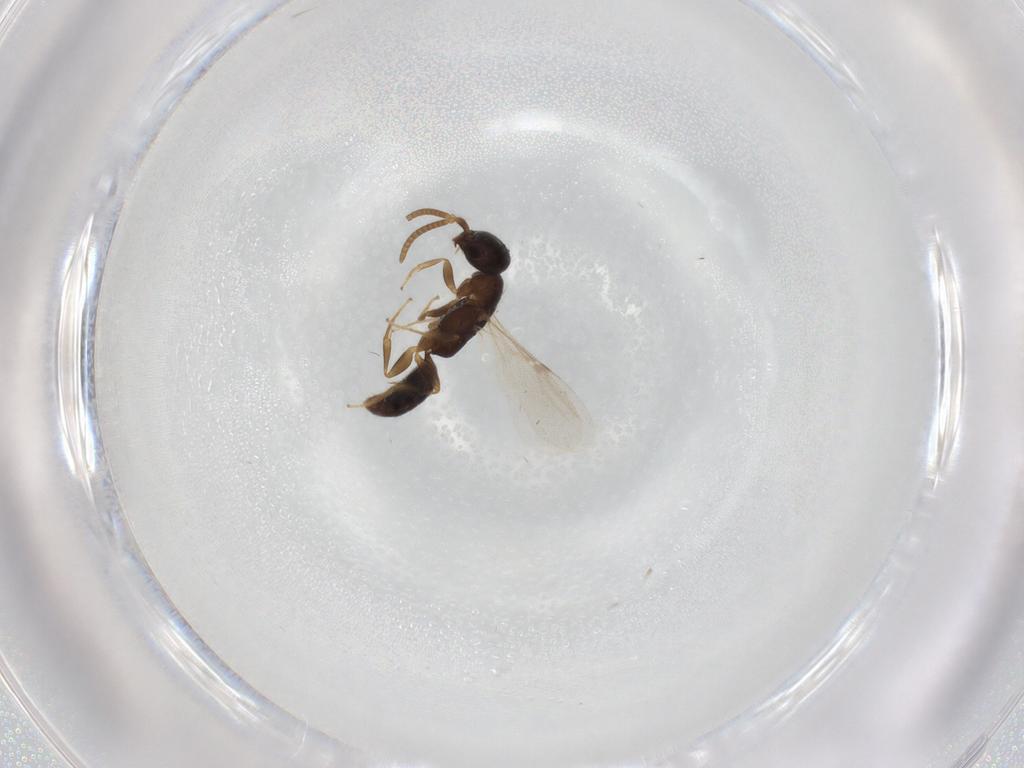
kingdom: Animalia
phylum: Arthropoda
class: Insecta
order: Hymenoptera
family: Bethylidae
